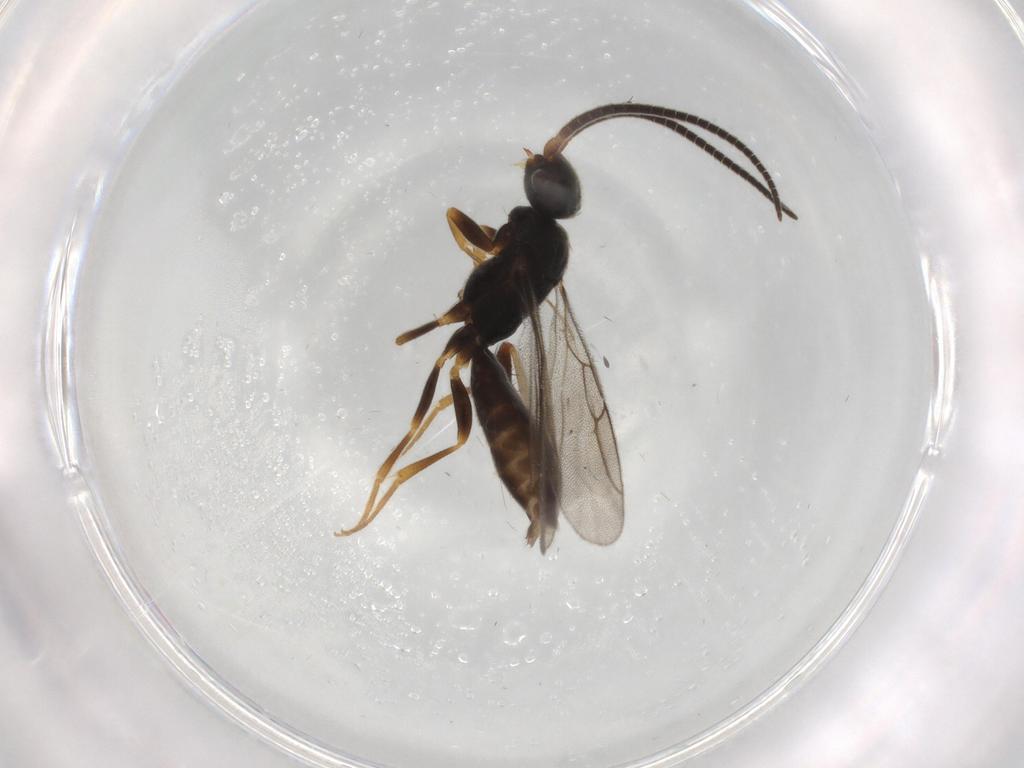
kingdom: Animalia
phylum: Arthropoda
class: Insecta
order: Hymenoptera
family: Sclerogibbidae
